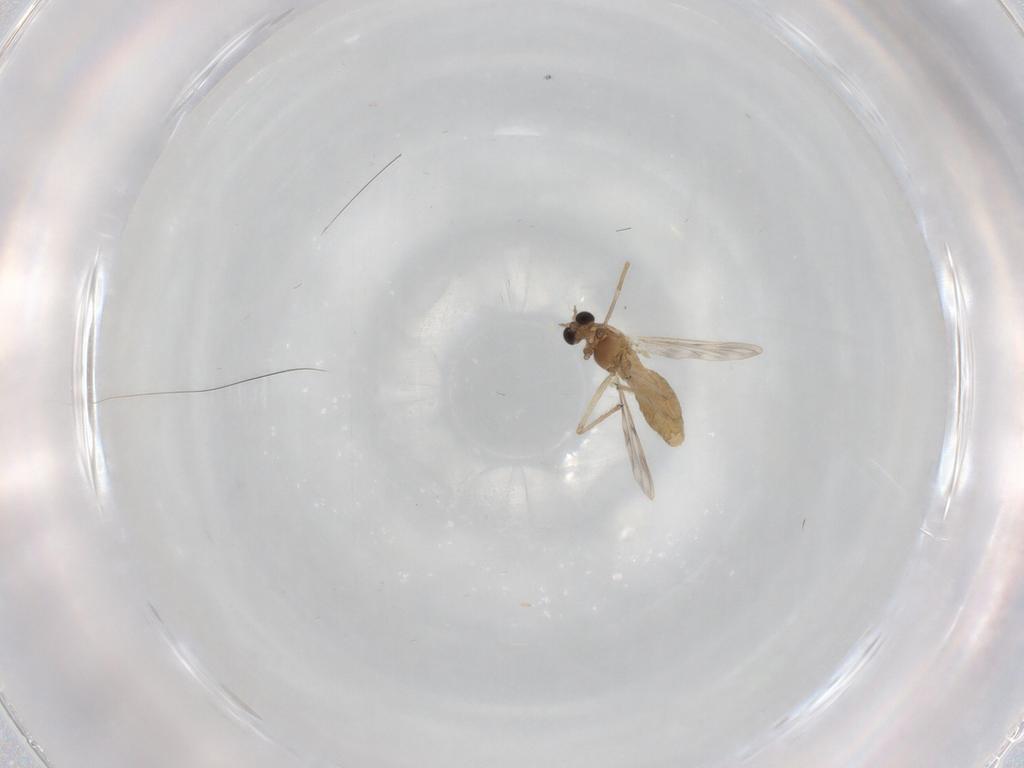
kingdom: Animalia
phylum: Arthropoda
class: Insecta
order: Diptera
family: Chironomidae
